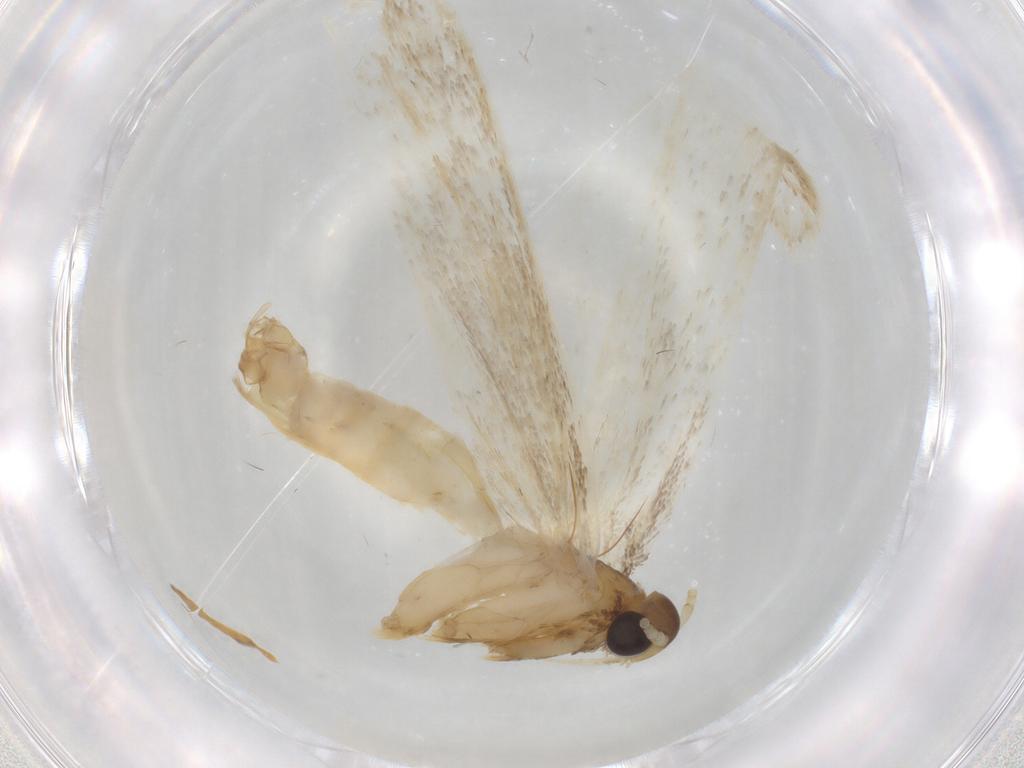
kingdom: Animalia
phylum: Arthropoda
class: Insecta
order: Lepidoptera
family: Lecithoceridae
